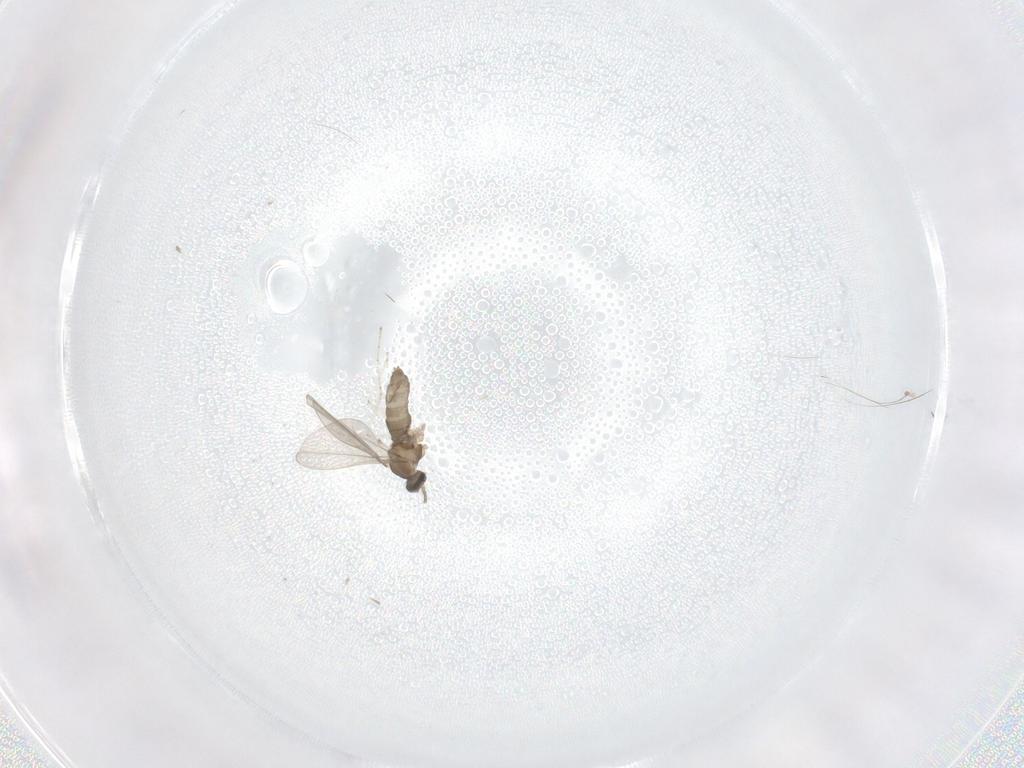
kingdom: Animalia
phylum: Arthropoda
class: Insecta
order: Diptera
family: Cecidomyiidae
